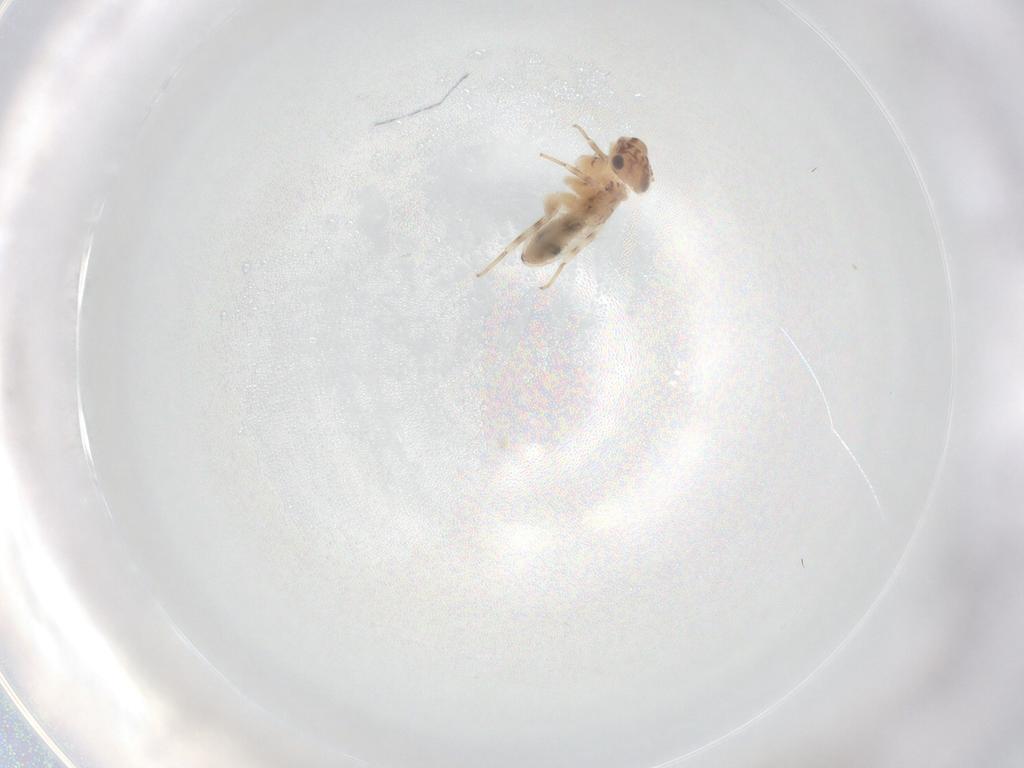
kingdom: Animalia
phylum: Arthropoda
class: Insecta
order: Psocodea
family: Lepidopsocidae
